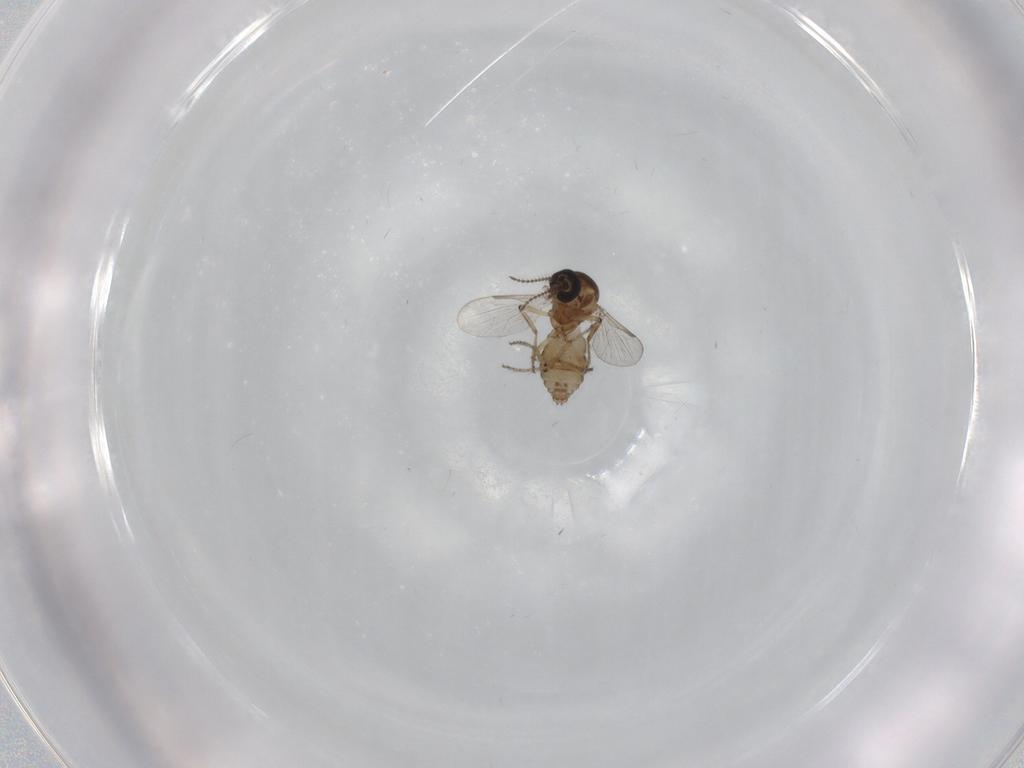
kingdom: Animalia
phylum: Arthropoda
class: Insecta
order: Diptera
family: Ceratopogonidae
